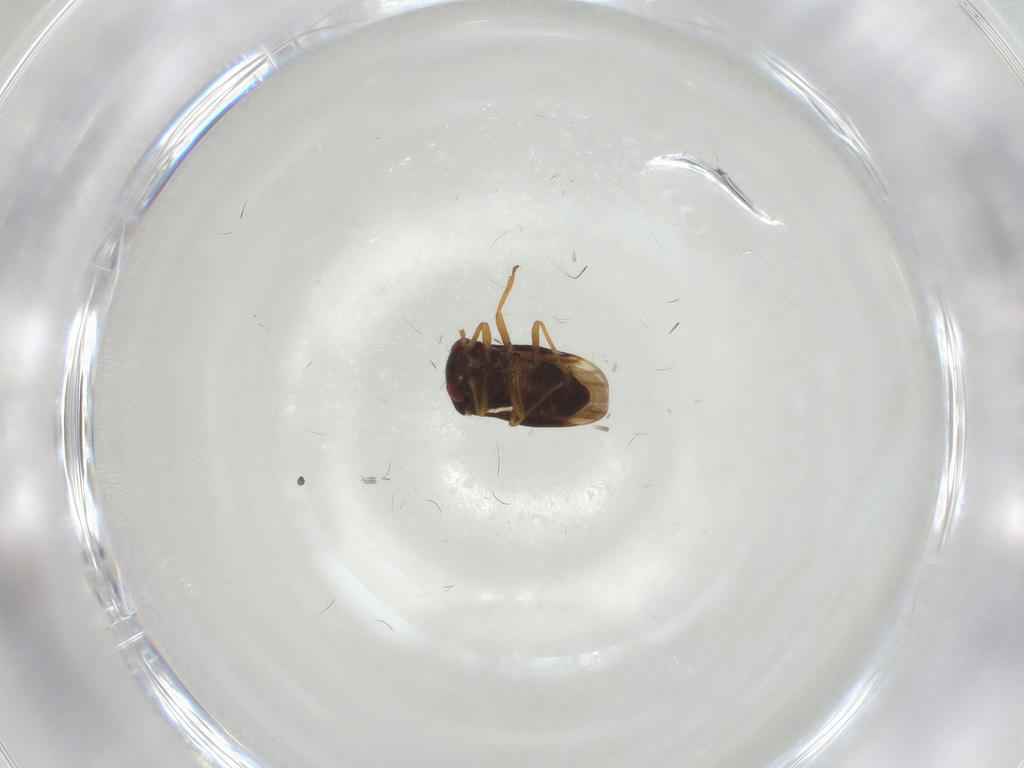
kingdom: Animalia
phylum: Arthropoda
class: Insecta
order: Hemiptera
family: Schizopteridae
